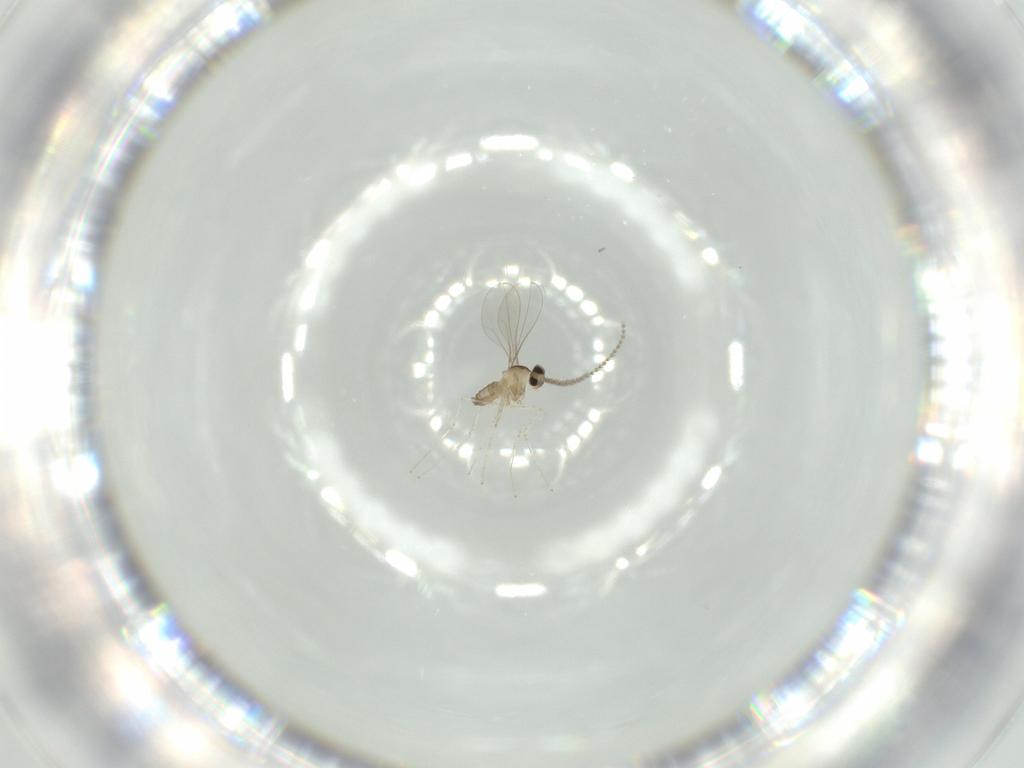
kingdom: Animalia
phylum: Arthropoda
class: Insecta
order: Diptera
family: Cecidomyiidae
